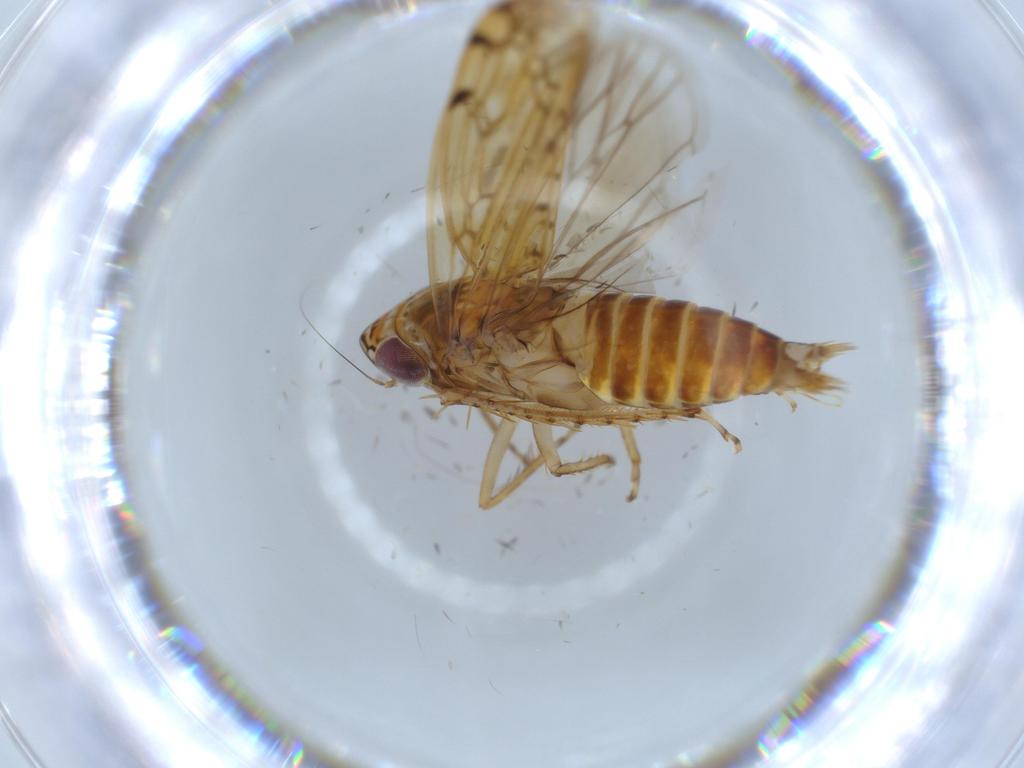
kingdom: Animalia
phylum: Arthropoda
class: Insecta
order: Hemiptera
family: Cicadellidae
